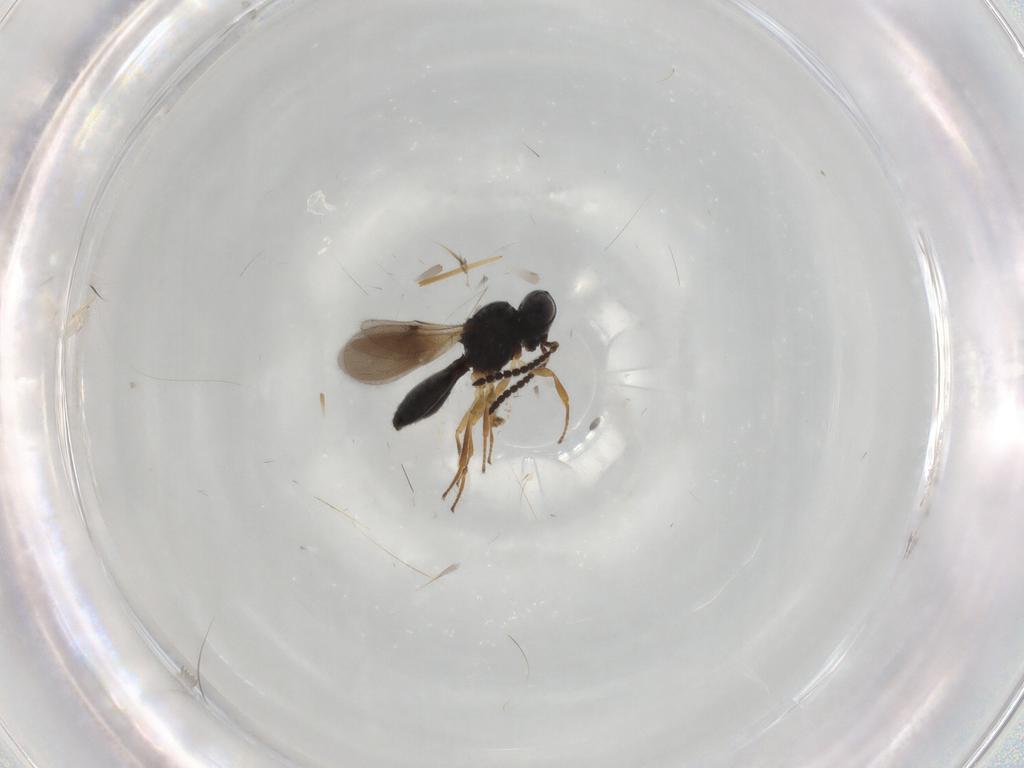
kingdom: Animalia
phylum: Arthropoda
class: Insecta
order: Hymenoptera
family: Scelionidae
